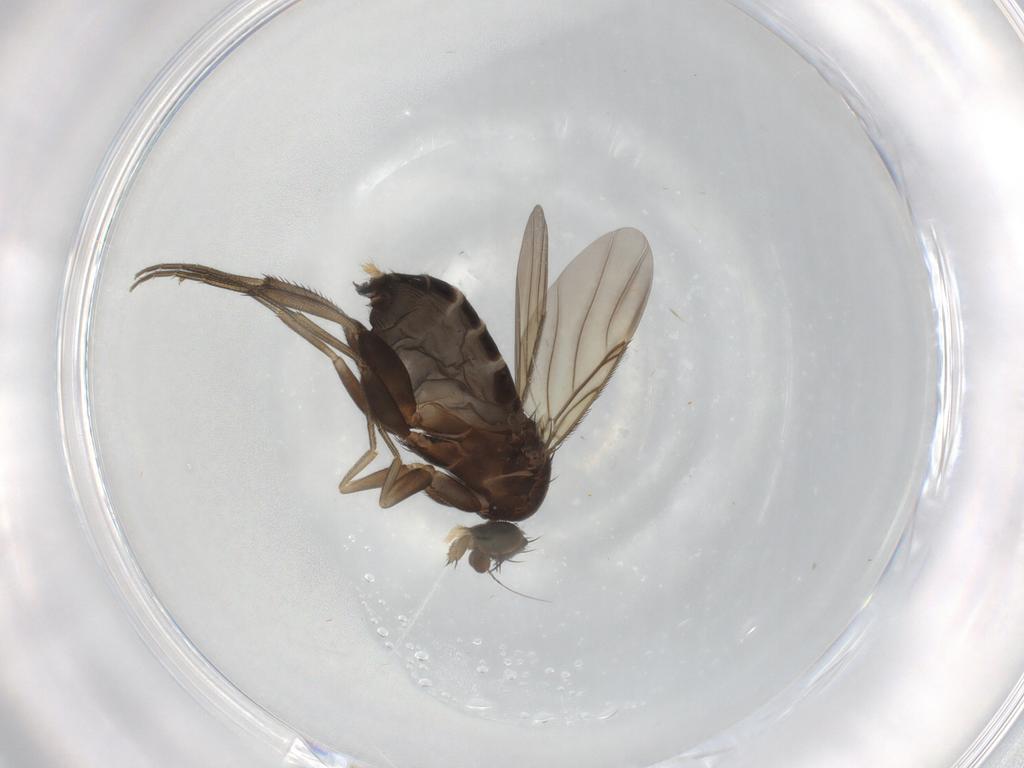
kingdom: Animalia
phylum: Arthropoda
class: Insecta
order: Diptera
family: Phoridae
